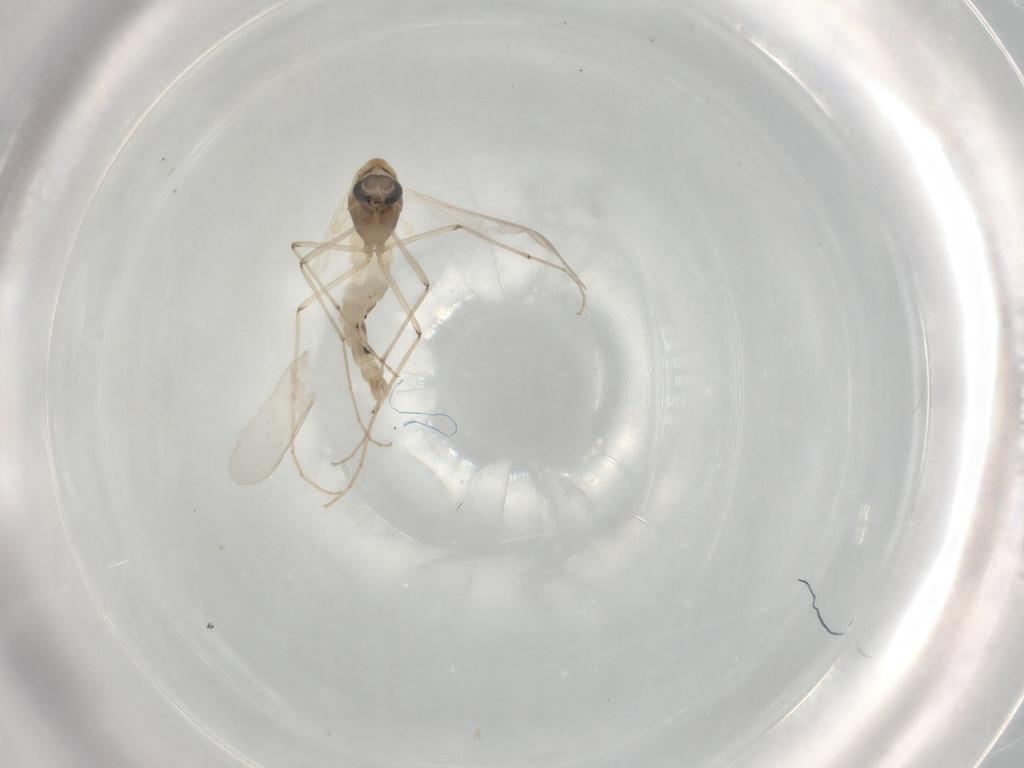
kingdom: Animalia
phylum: Arthropoda
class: Insecta
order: Diptera
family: Chironomidae
